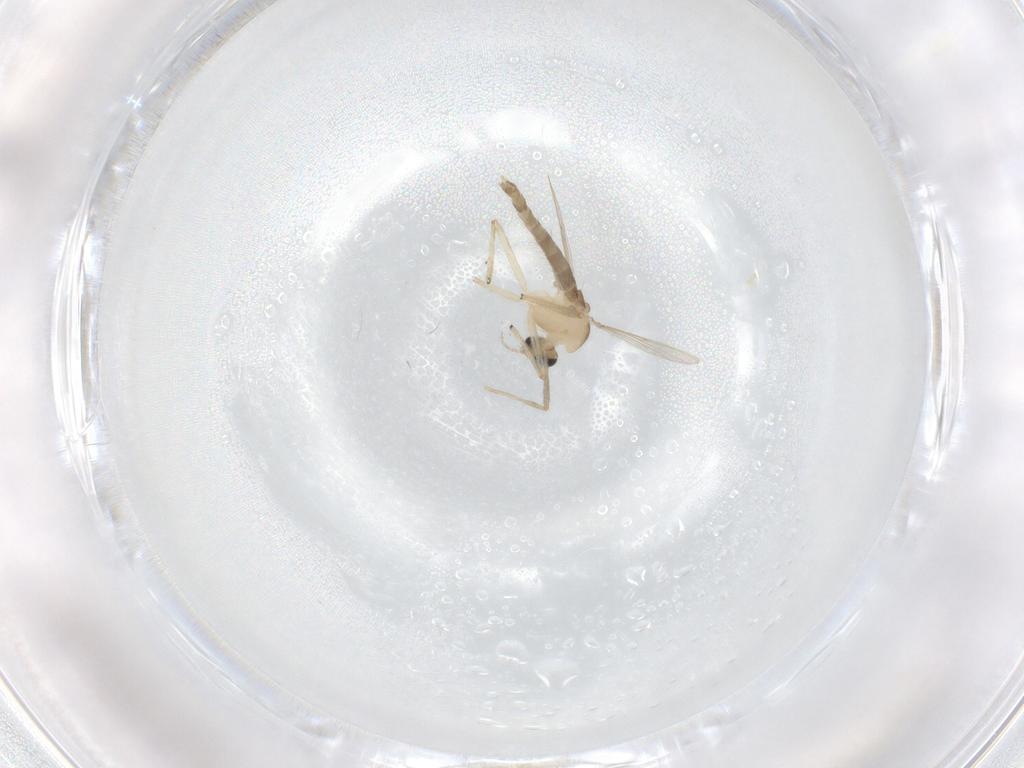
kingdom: Animalia
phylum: Arthropoda
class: Insecta
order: Diptera
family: Chironomidae
